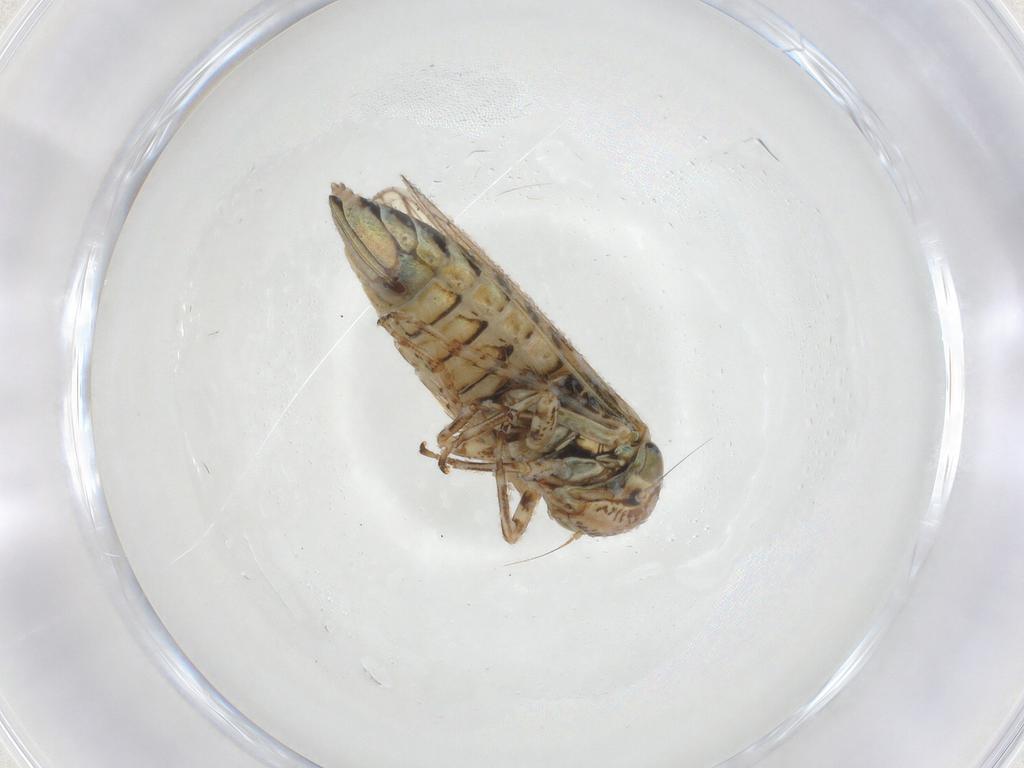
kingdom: Animalia
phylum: Arthropoda
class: Insecta
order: Hemiptera
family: Cicadellidae
